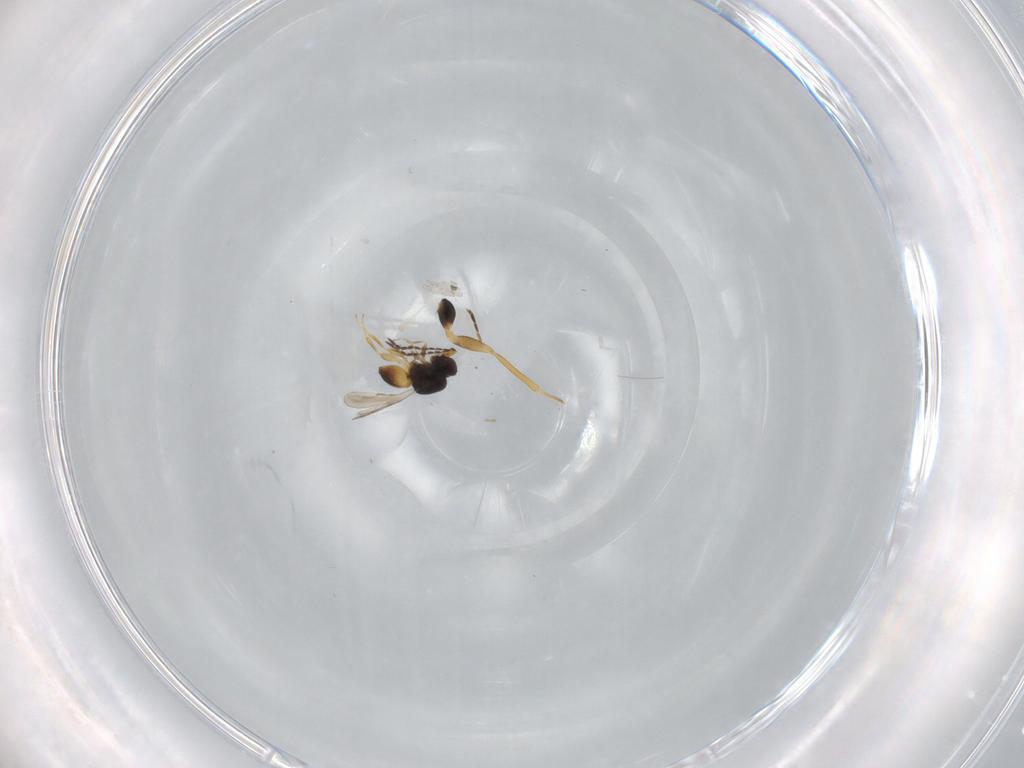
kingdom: Animalia
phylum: Arthropoda
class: Insecta
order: Hymenoptera
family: Eulophidae
